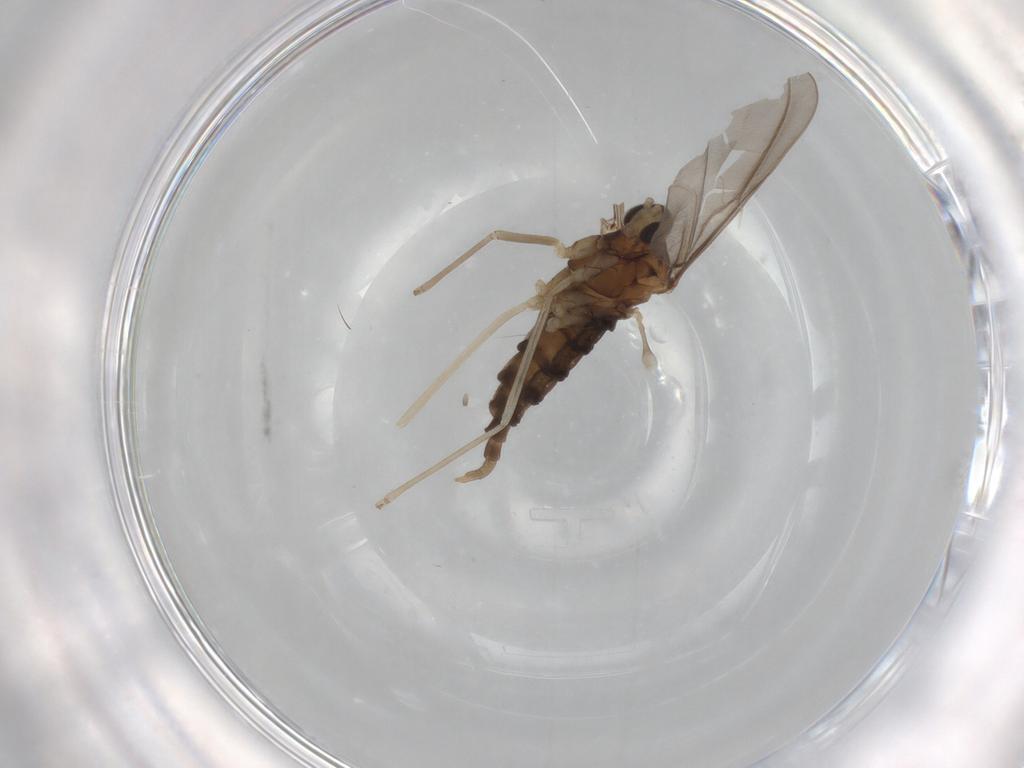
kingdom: Animalia
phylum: Arthropoda
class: Insecta
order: Diptera
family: Cecidomyiidae
